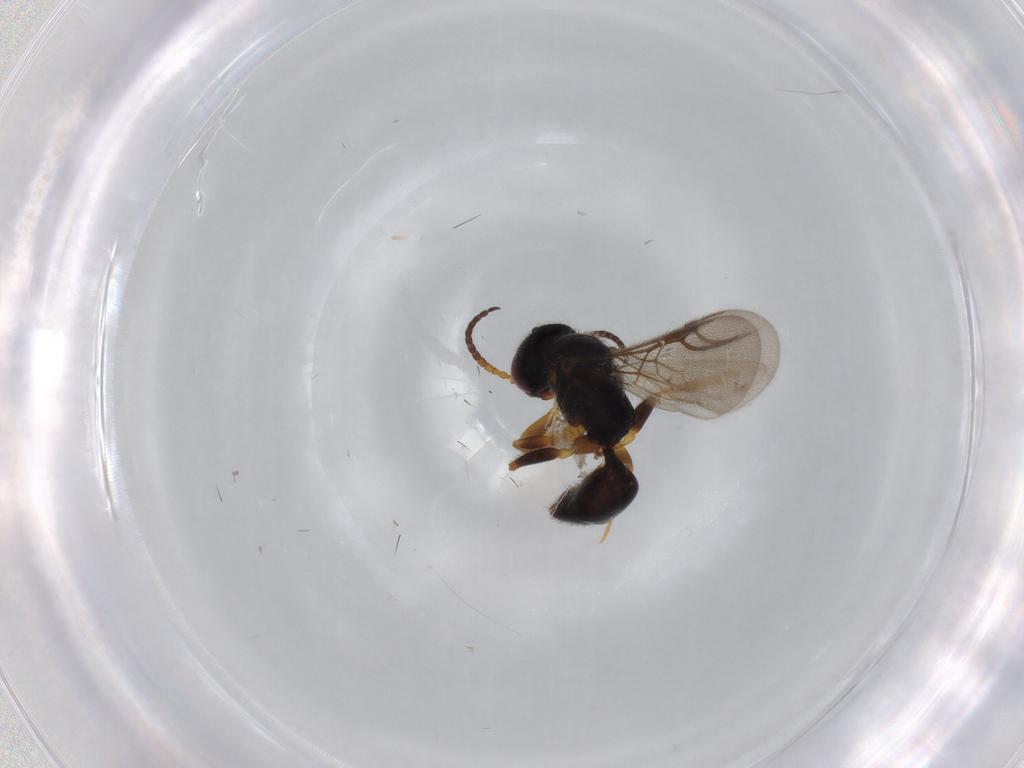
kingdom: Animalia
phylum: Arthropoda
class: Insecta
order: Hymenoptera
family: Bethylidae
